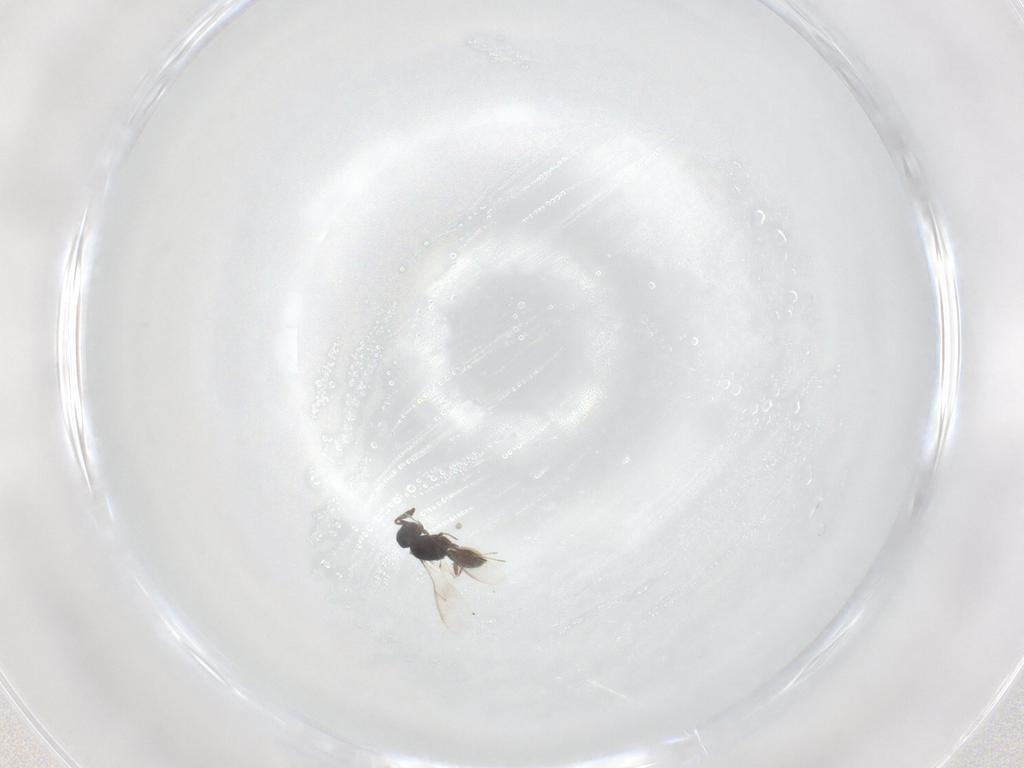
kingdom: Animalia
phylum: Arthropoda
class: Insecta
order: Hymenoptera
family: Scelionidae
